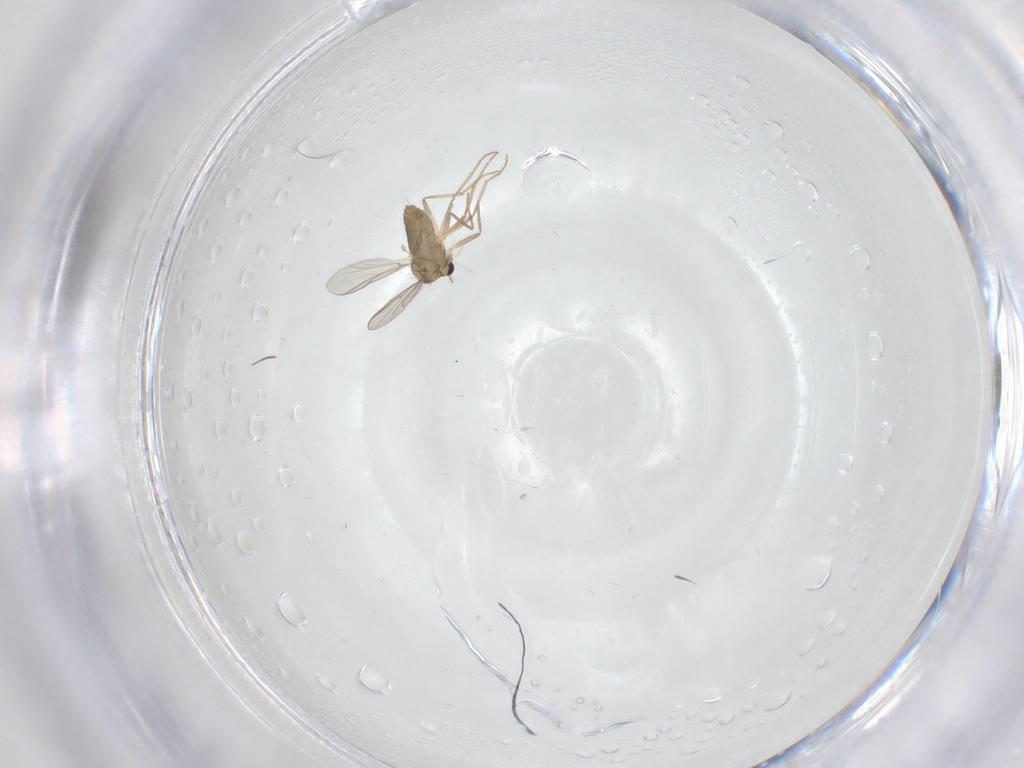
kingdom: Animalia
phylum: Arthropoda
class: Insecta
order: Diptera
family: Chironomidae
